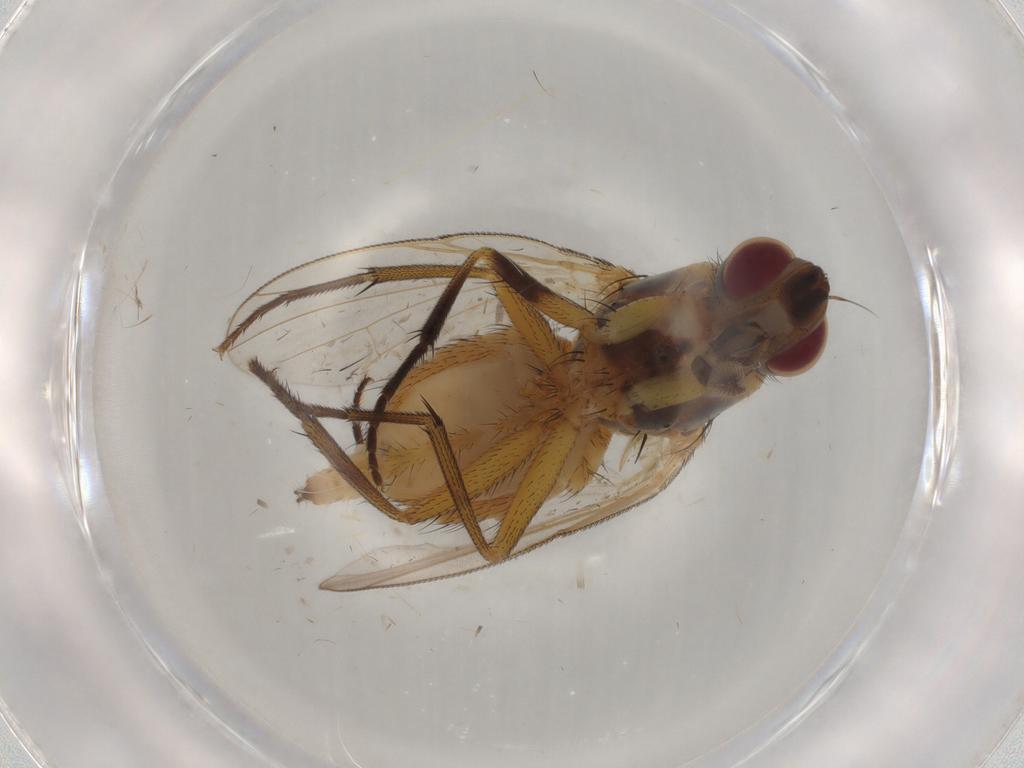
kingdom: Animalia
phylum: Arthropoda
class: Insecta
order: Diptera
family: Muscidae
